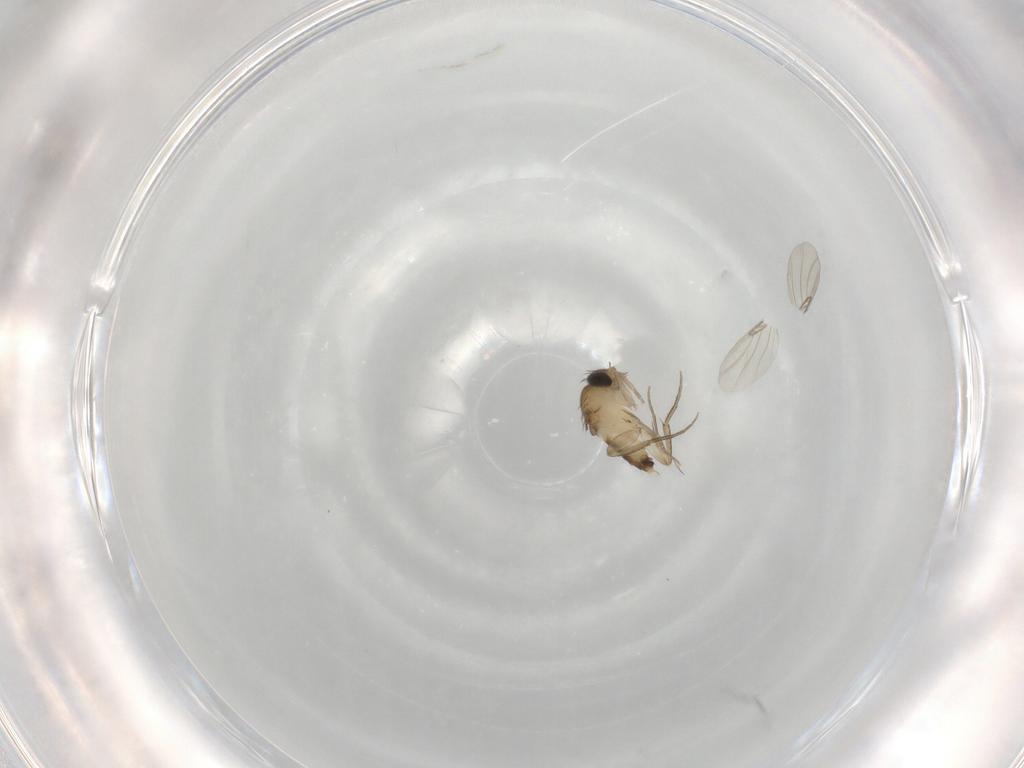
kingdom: Animalia
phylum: Arthropoda
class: Insecta
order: Diptera
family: Phoridae
